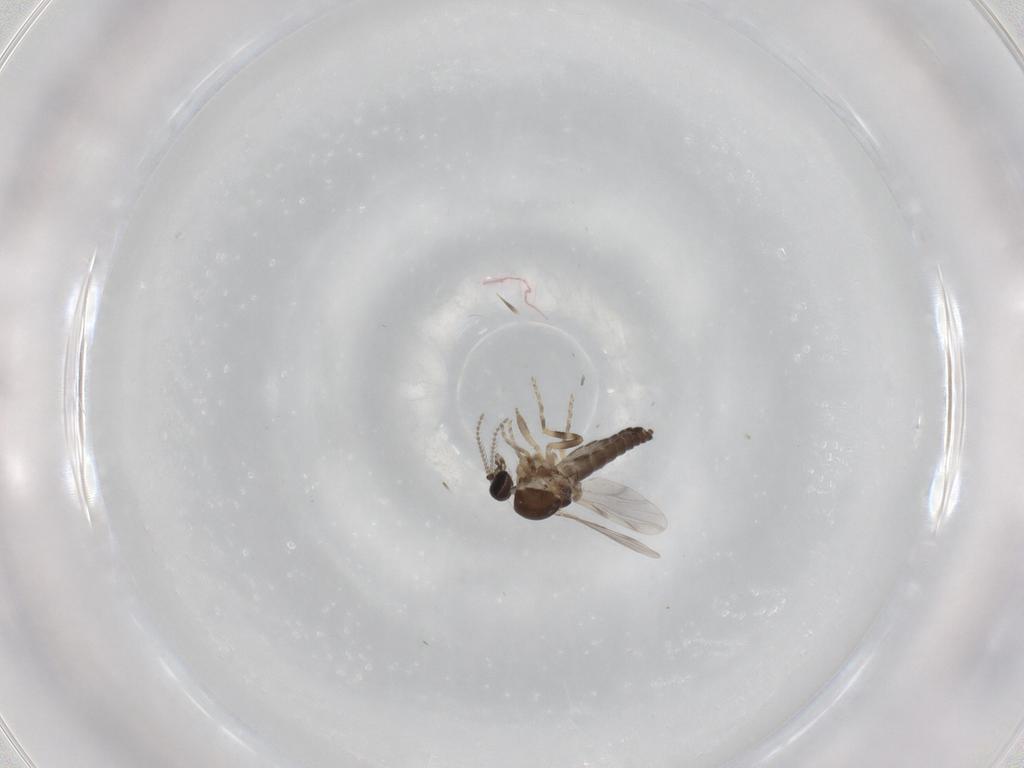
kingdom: Animalia
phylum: Arthropoda
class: Insecta
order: Diptera
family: Ceratopogonidae
